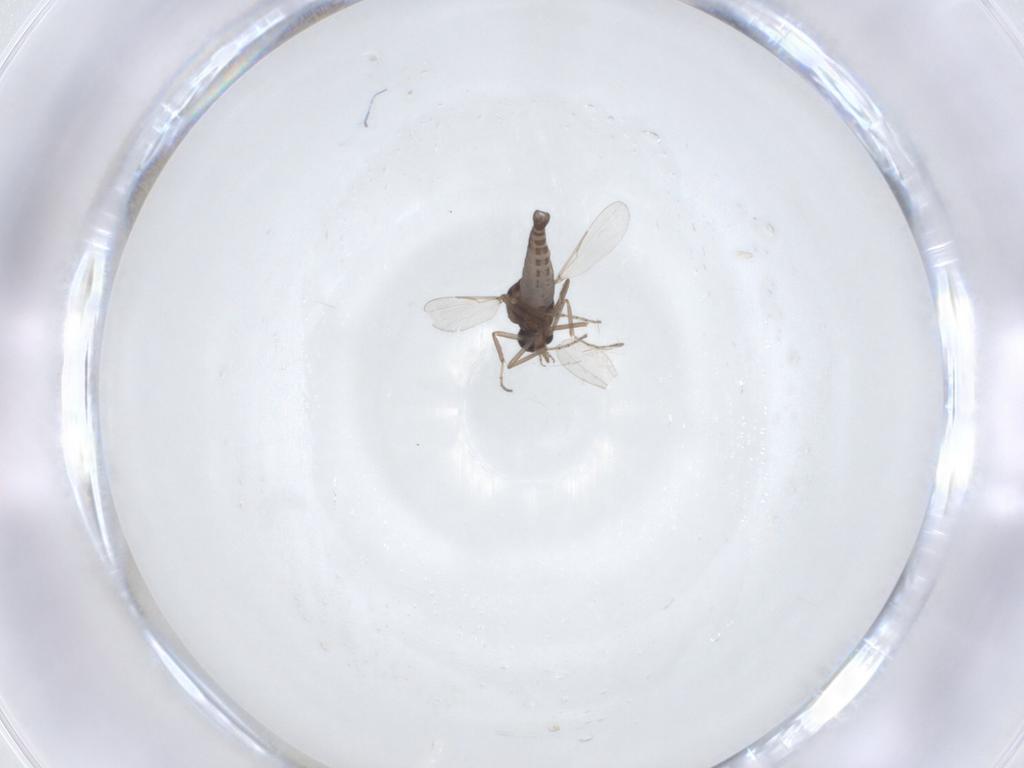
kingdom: Animalia
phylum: Arthropoda
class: Insecta
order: Diptera
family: Ceratopogonidae
